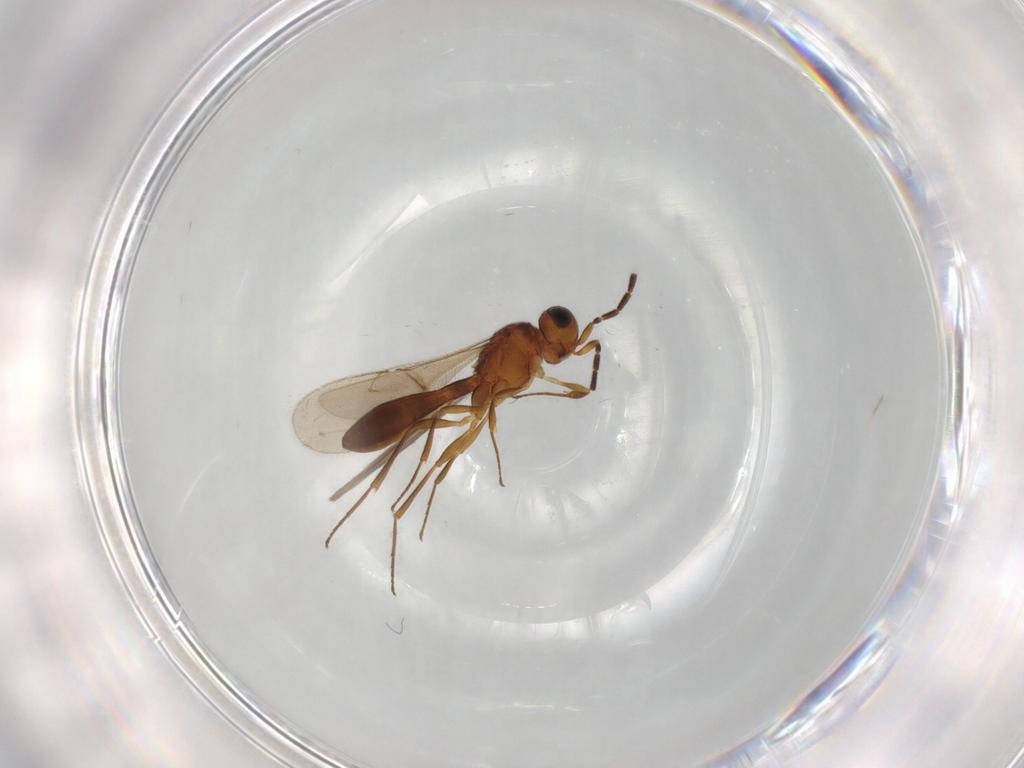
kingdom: Animalia
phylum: Arthropoda
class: Insecta
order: Hymenoptera
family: Scelionidae
